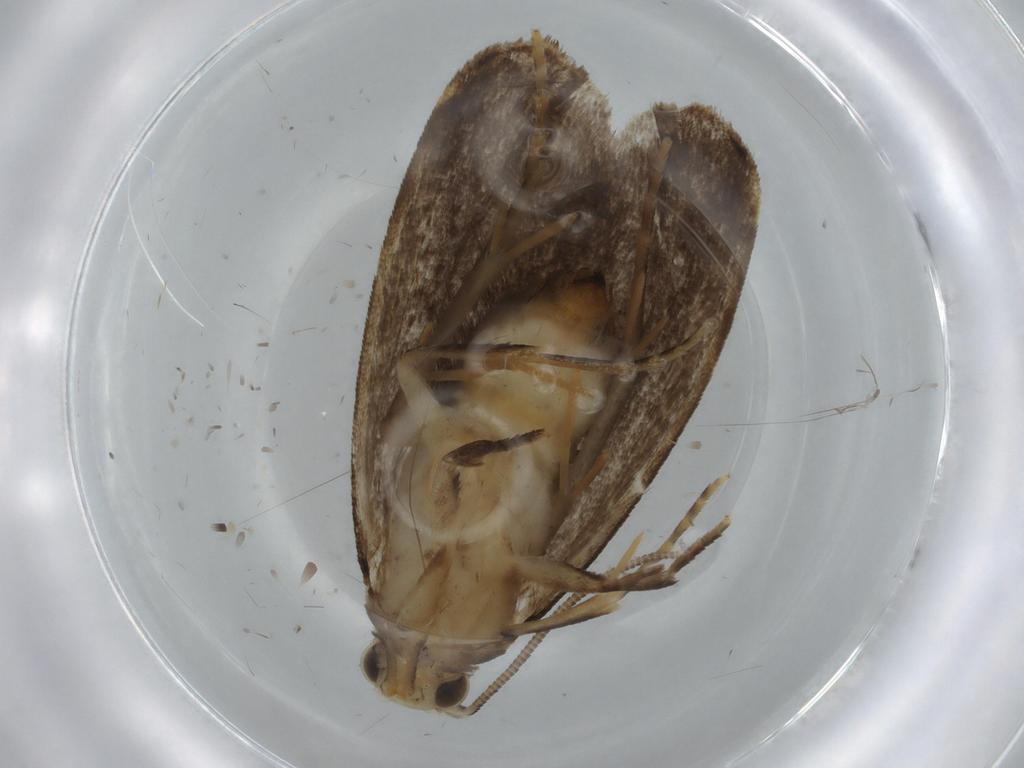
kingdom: Animalia
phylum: Arthropoda
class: Insecta
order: Lepidoptera
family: Dryadaulidae
